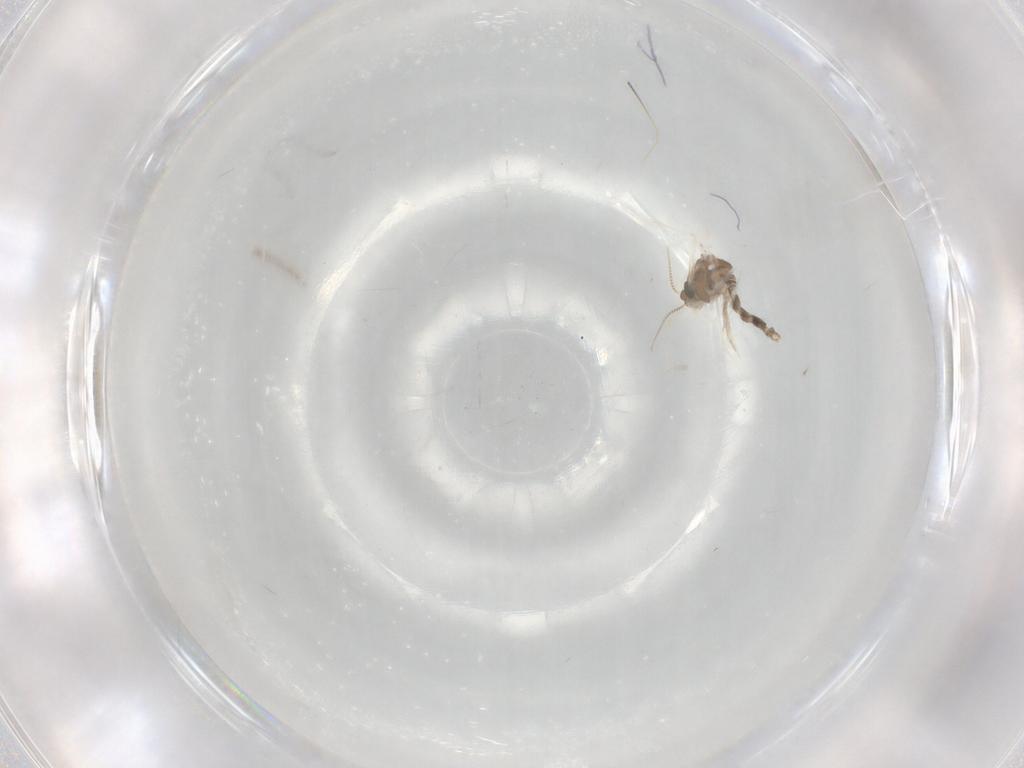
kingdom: Animalia
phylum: Arthropoda
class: Insecta
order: Diptera
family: Chironomidae
